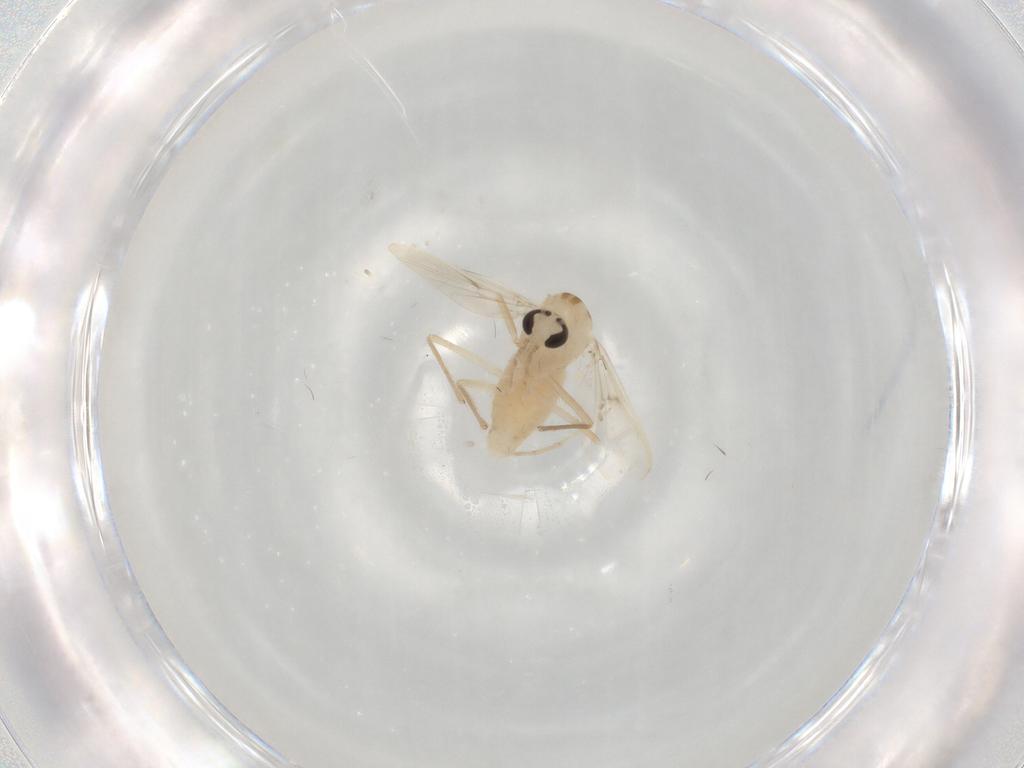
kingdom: Animalia
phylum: Arthropoda
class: Insecta
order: Diptera
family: Chironomidae
